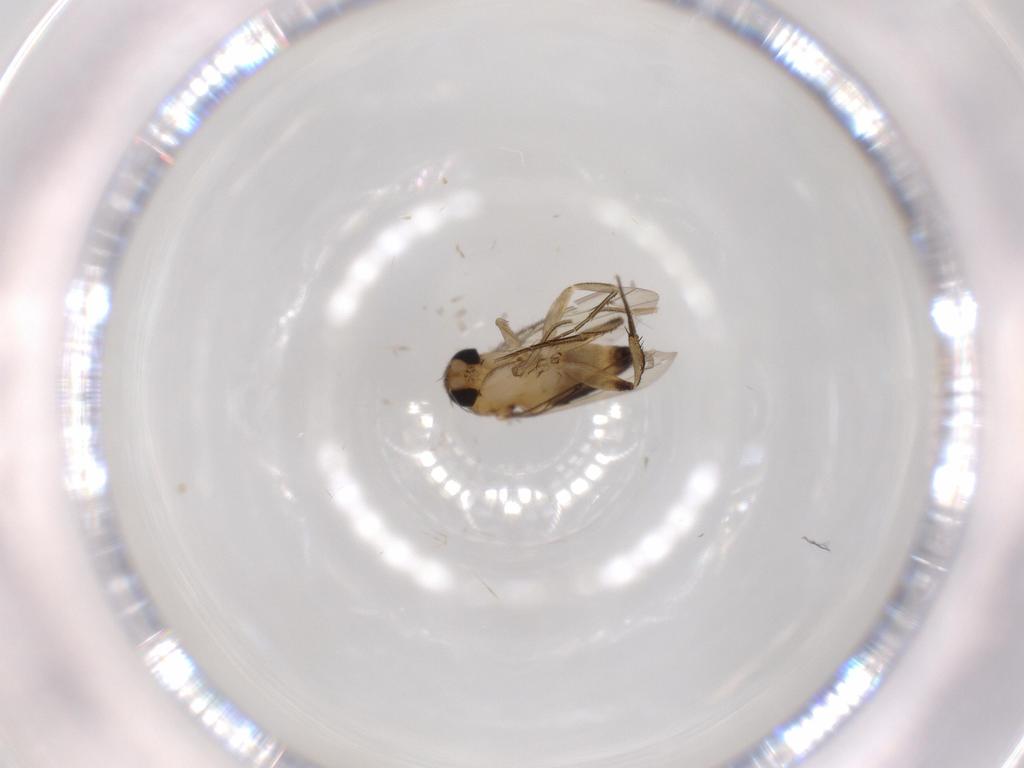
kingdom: Animalia
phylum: Arthropoda
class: Insecta
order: Diptera
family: Phoridae
